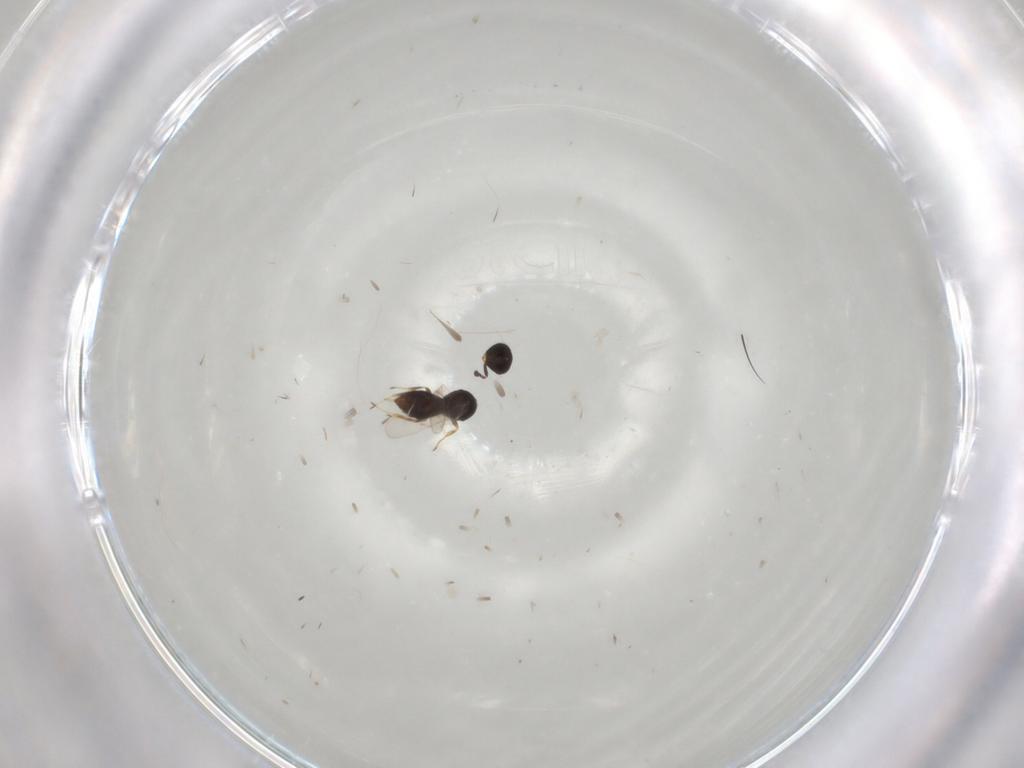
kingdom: Animalia
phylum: Arthropoda
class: Insecta
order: Hymenoptera
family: Scelionidae
